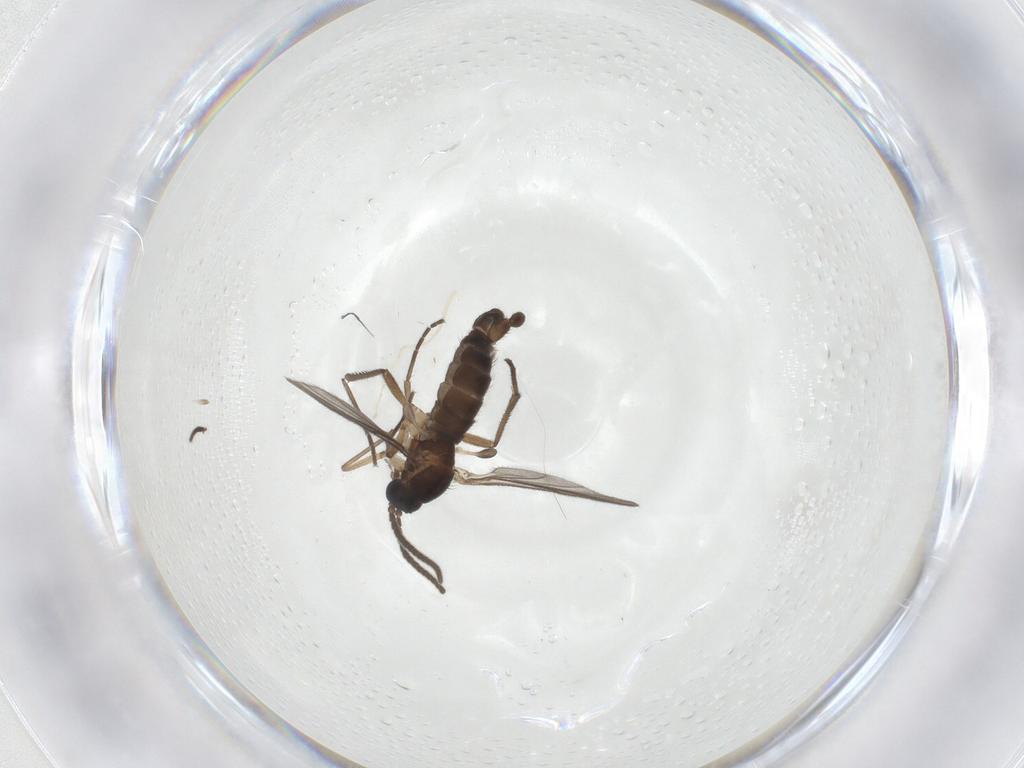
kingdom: Animalia
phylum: Arthropoda
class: Insecta
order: Diptera
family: Sciaridae
